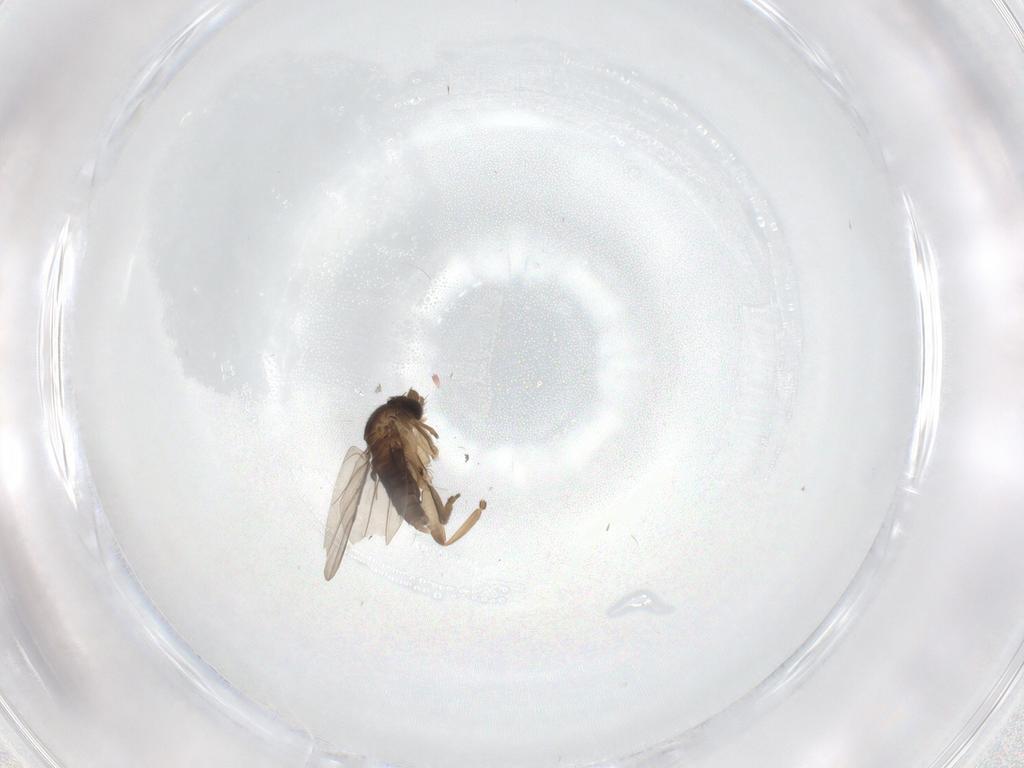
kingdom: Animalia
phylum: Arthropoda
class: Insecta
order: Diptera
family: Phoridae
